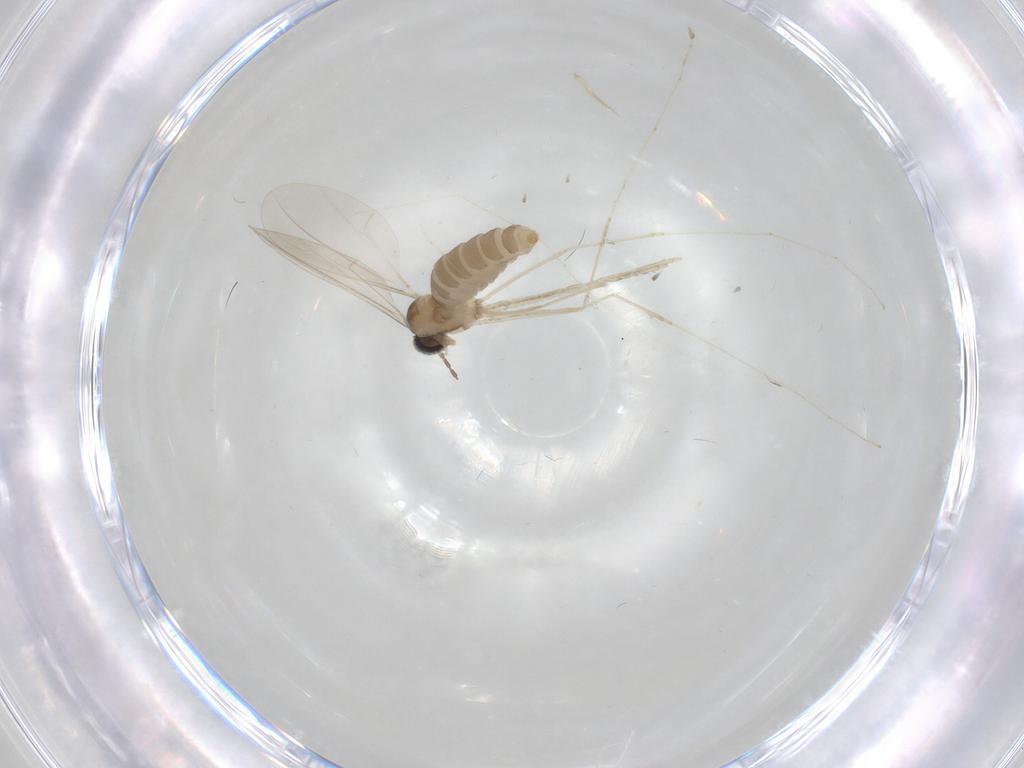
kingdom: Animalia
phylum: Arthropoda
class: Insecta
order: Diptera
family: Cecidomyiidae
